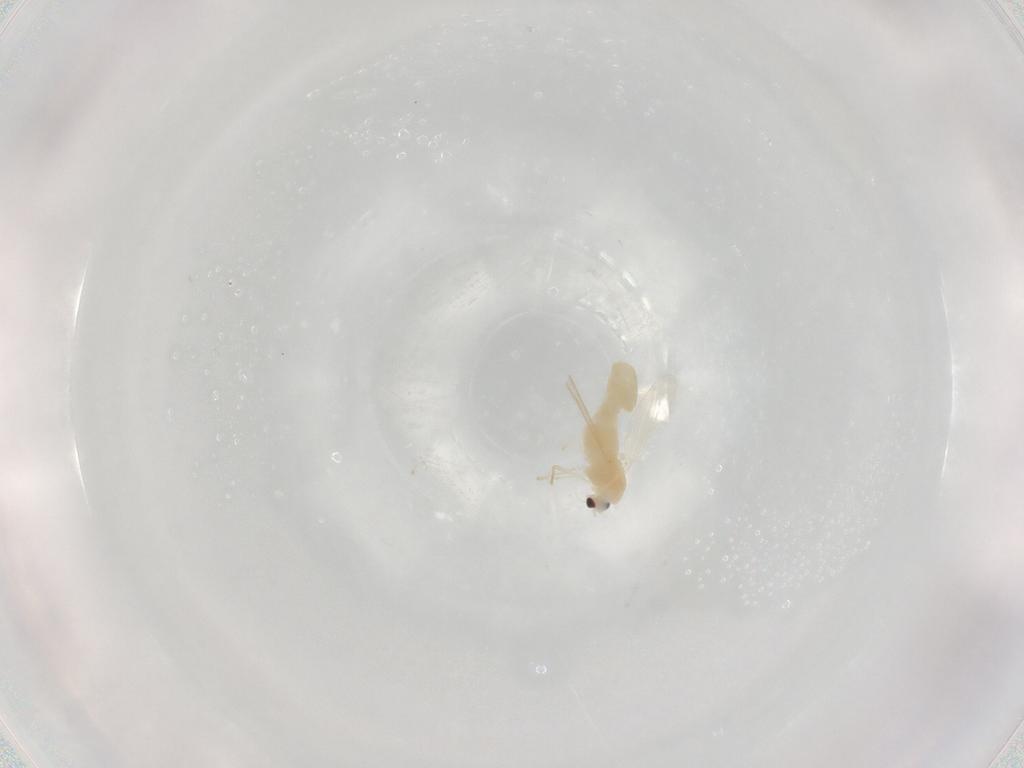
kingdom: Animalia
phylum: Arthropoda
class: Insecta
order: Diptera
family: Chironomidae
